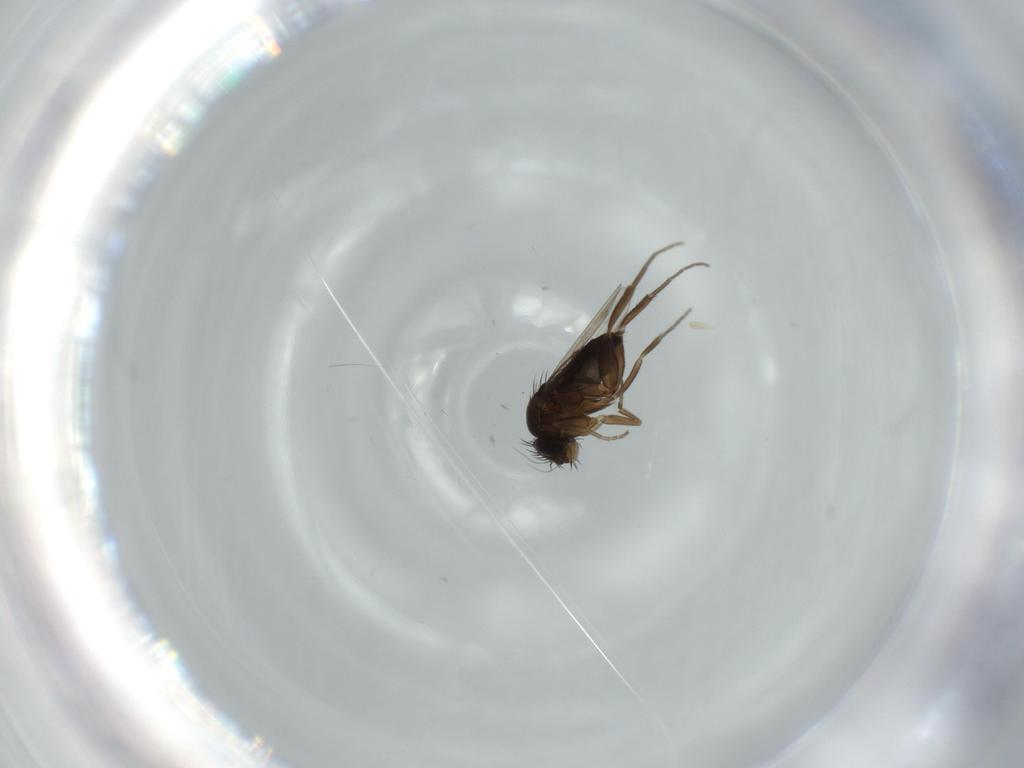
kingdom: Animalia
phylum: Arthropoda
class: Insecta
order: Diptera
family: Phoridae
